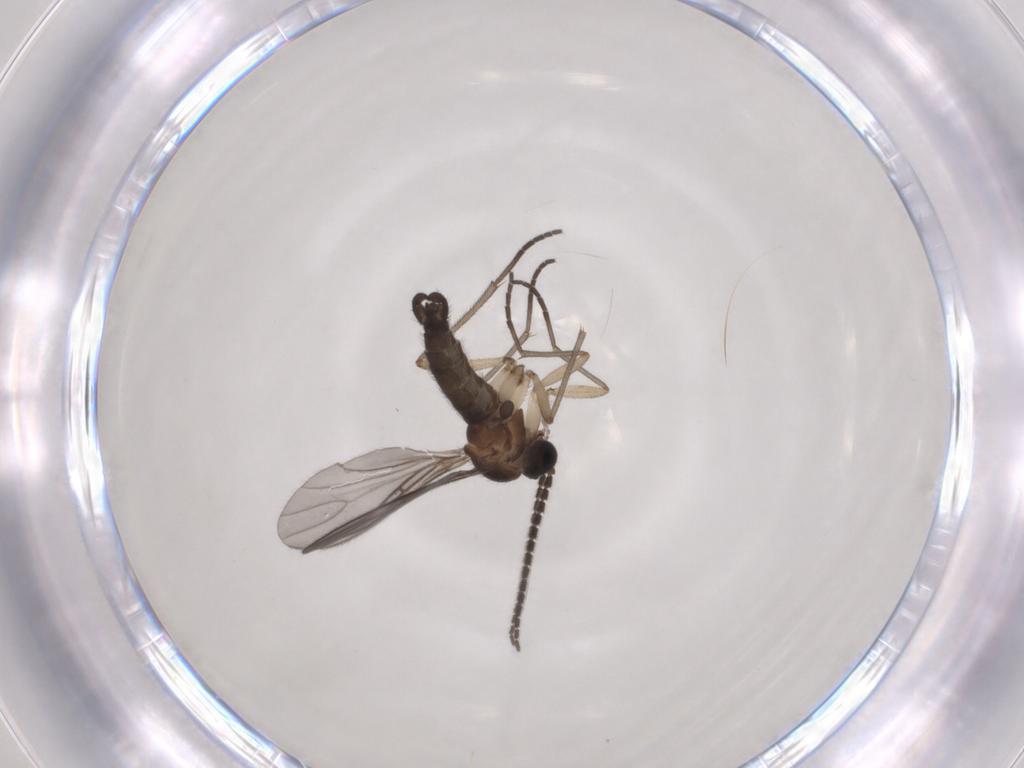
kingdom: Animalia
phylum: Arthropoda
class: Insecta
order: Diptera
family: Sciaridae
